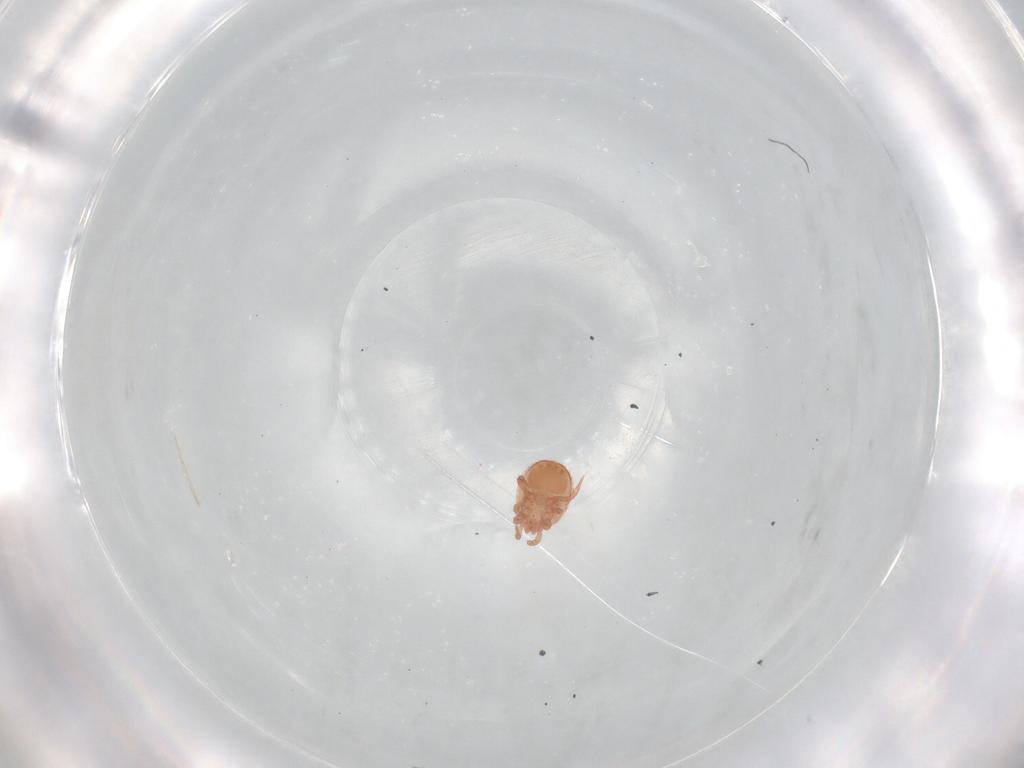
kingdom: Animalia
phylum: Arthropoda
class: Arachnida
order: Mesostigmata
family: Zerconidae
